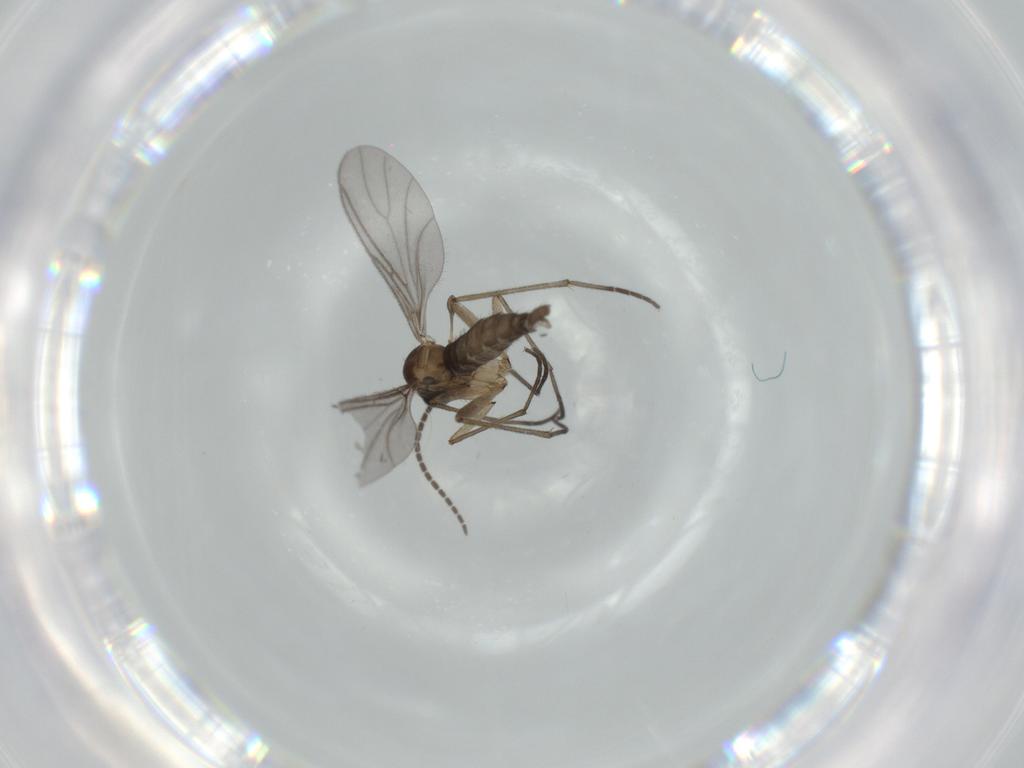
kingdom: Animalia
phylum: Arthropoda
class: Insecta
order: Diptera
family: Sciaridae
